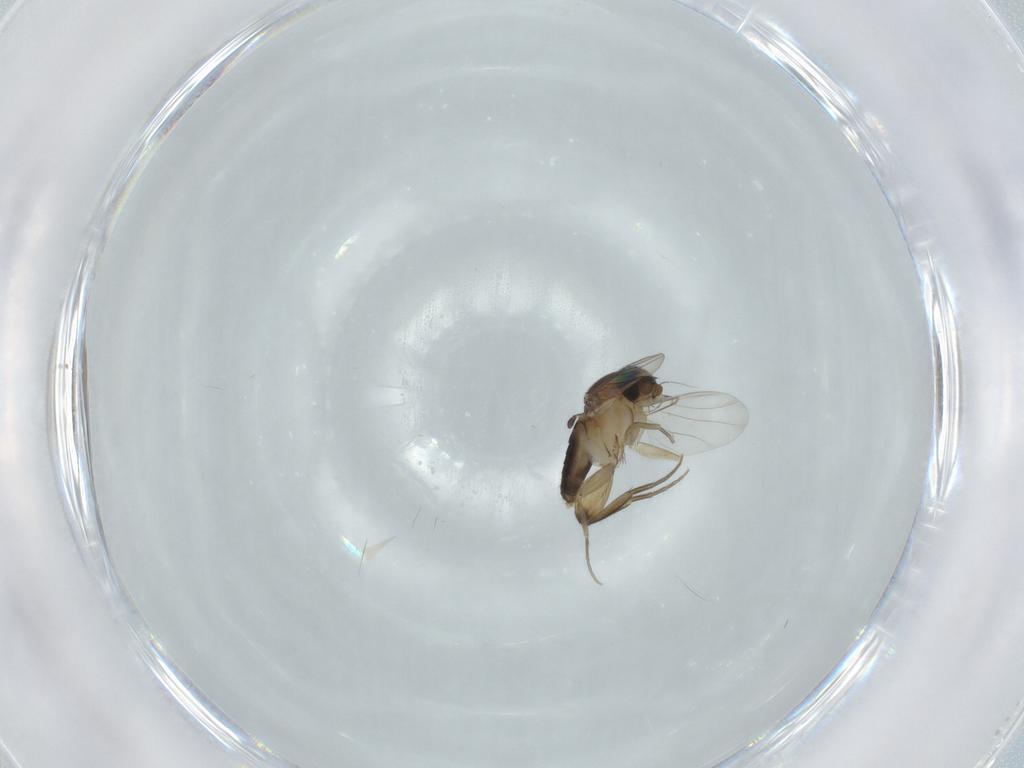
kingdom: Animalia
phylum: Arthropoda
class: Insecta
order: Diptera
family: Phoridae
